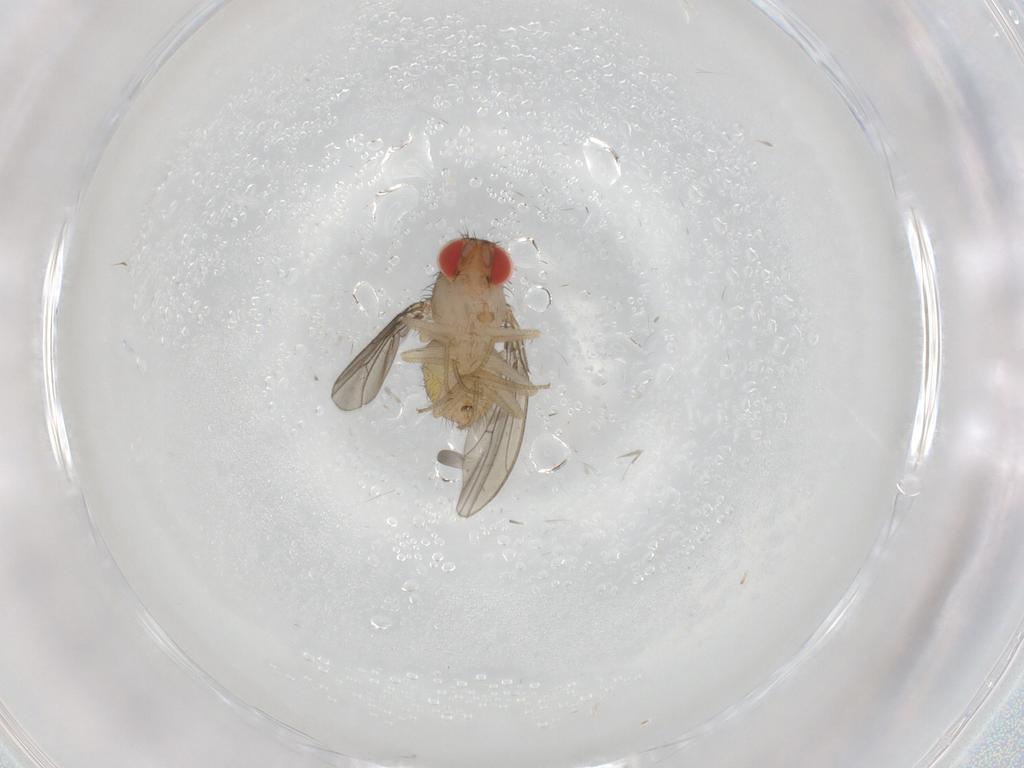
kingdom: Animalia
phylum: Arthropoda
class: Insecta
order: Diptera
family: Drosophilidae
